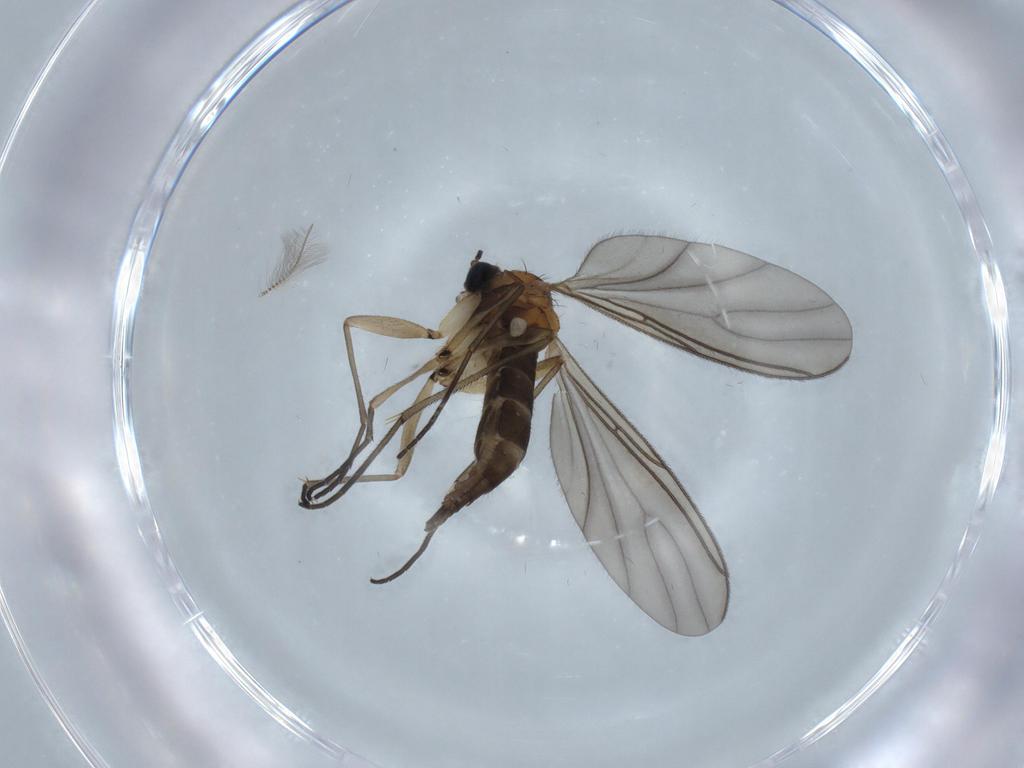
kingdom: Animalia
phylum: Arthropoda
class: Insecta
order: Diptera
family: Sciaridae
